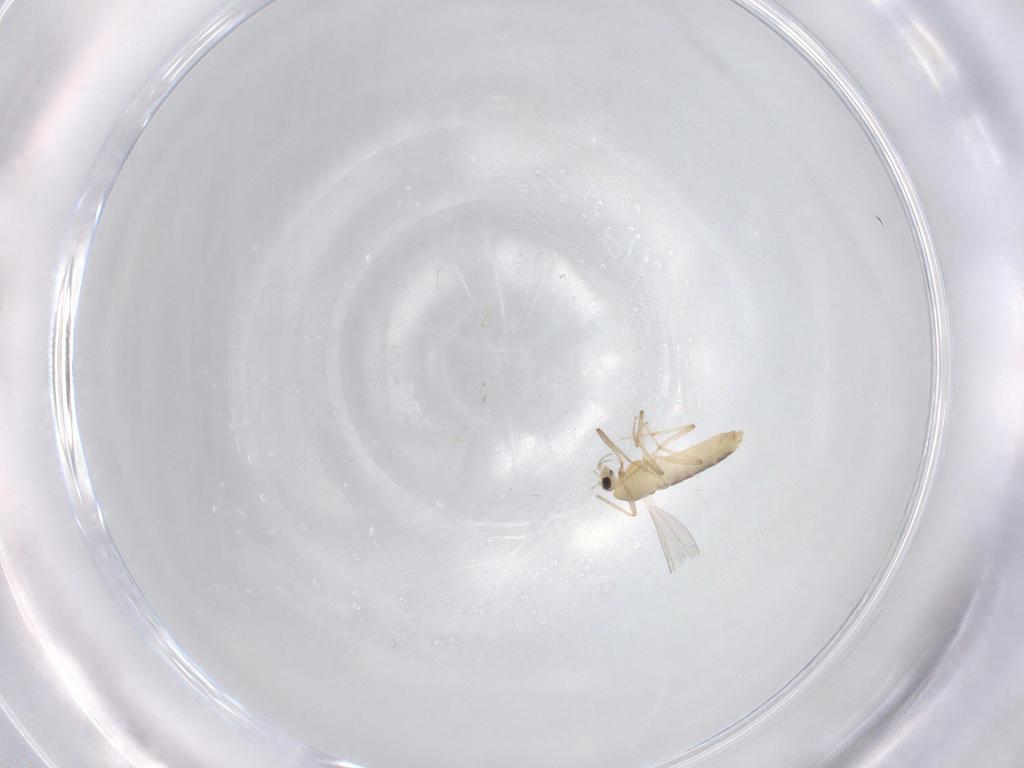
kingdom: Animalia
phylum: Arthropoda
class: Insecta
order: Diptera
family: Chironomidae
